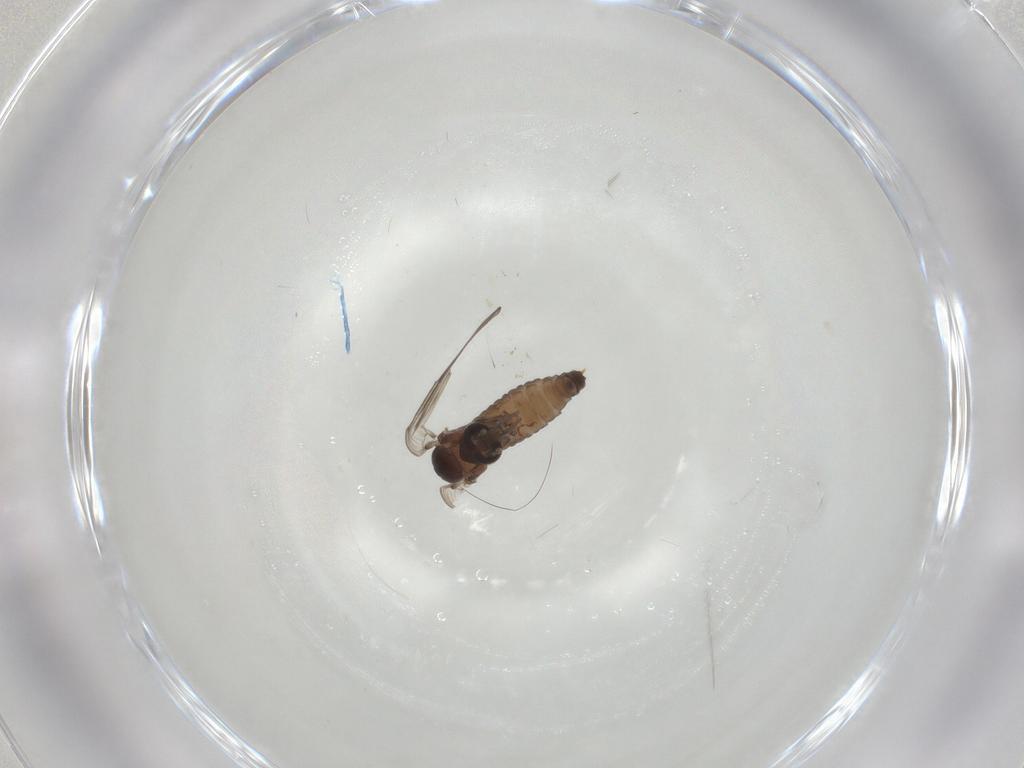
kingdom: Animalia
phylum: Arthropoda
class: Insecta
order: Diptera
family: Psychodidae
